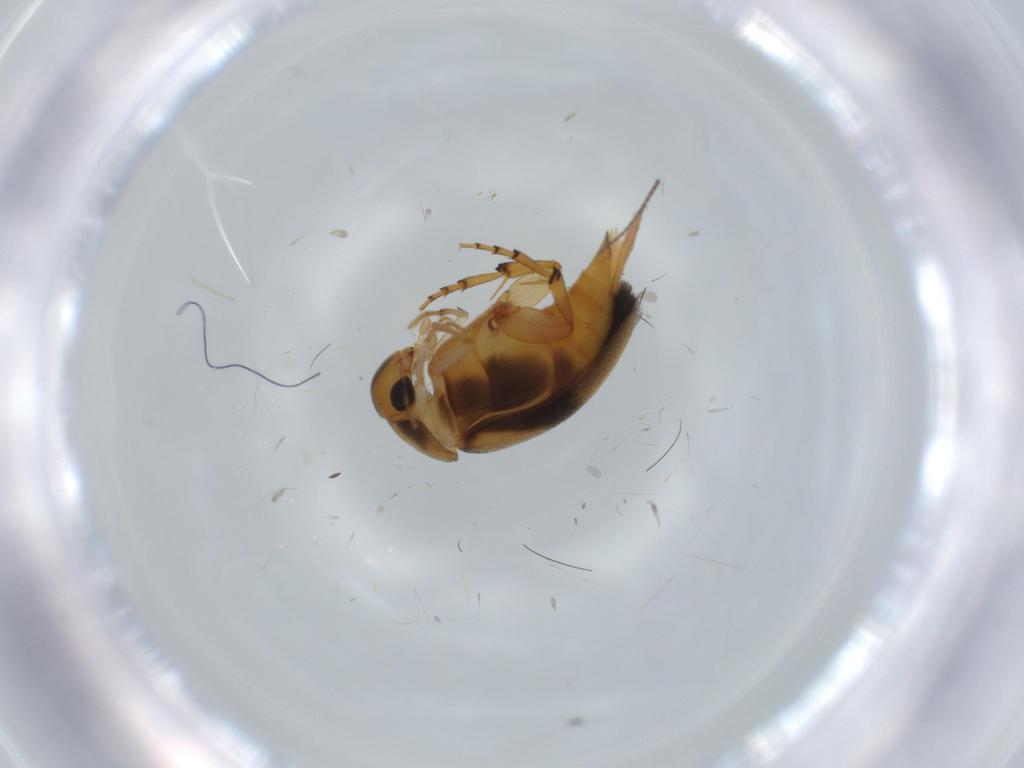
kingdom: Animalia
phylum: Arthropoda
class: Insecta
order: Coleoptera
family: Mordellidae
